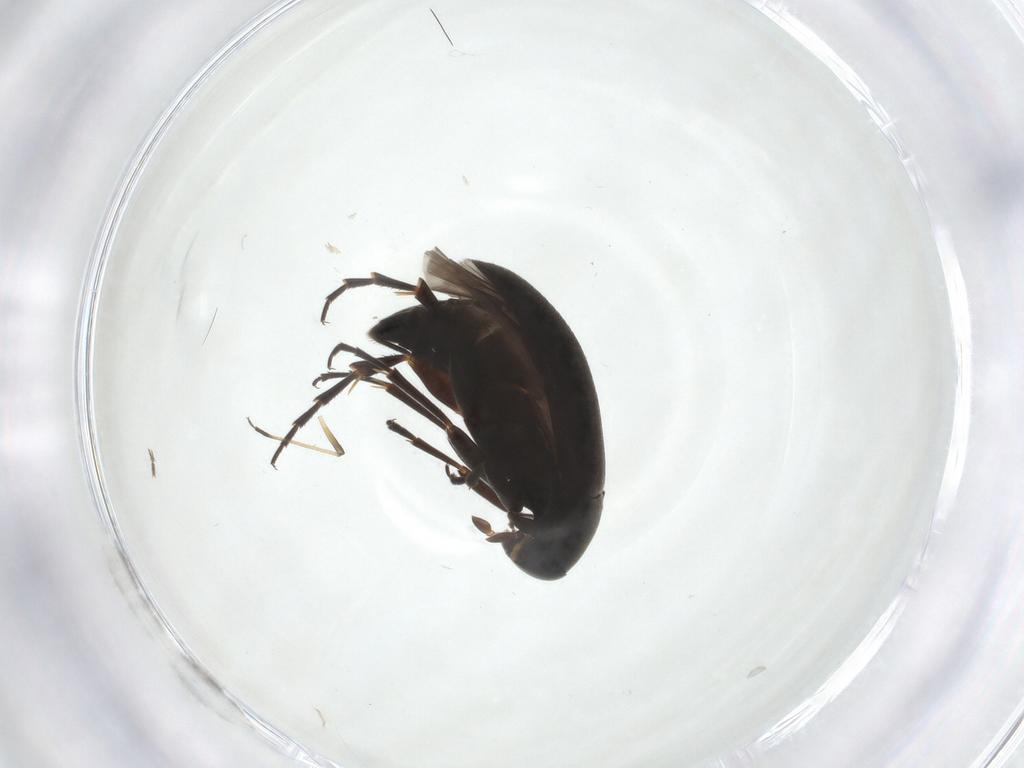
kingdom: Animalia
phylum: Arthropoda
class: Insecta
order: Coleoptera
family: Scraptiidae
